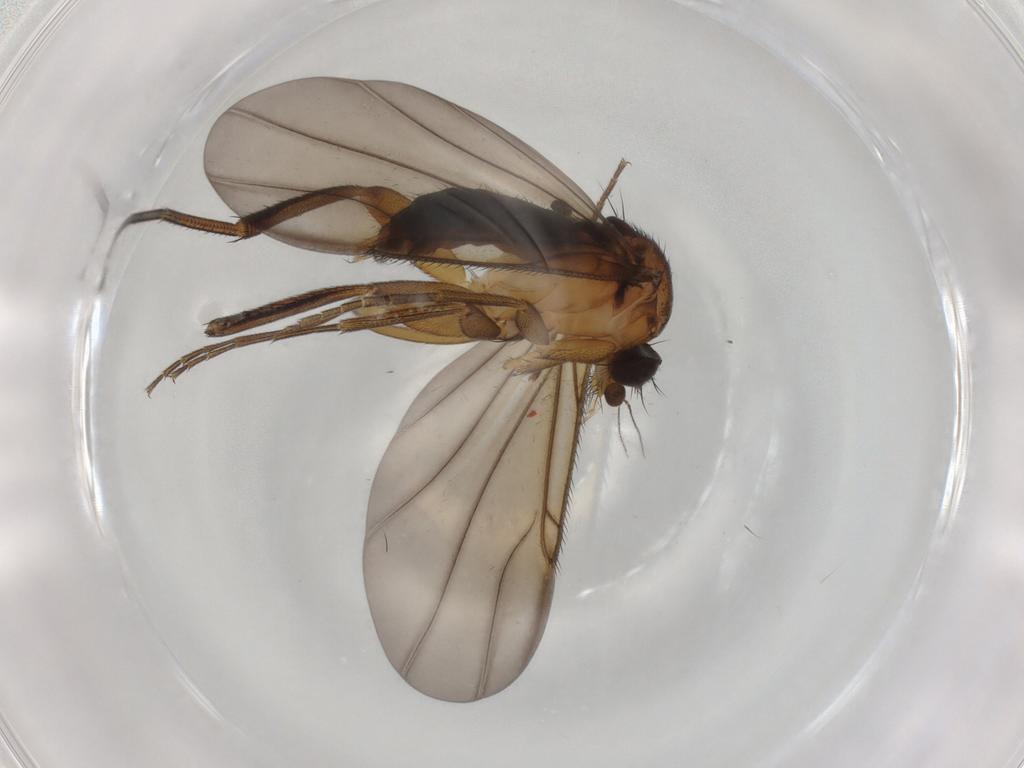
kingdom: Animalia
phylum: Arthropoda
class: Insecta
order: Diptera
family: Phoridae
